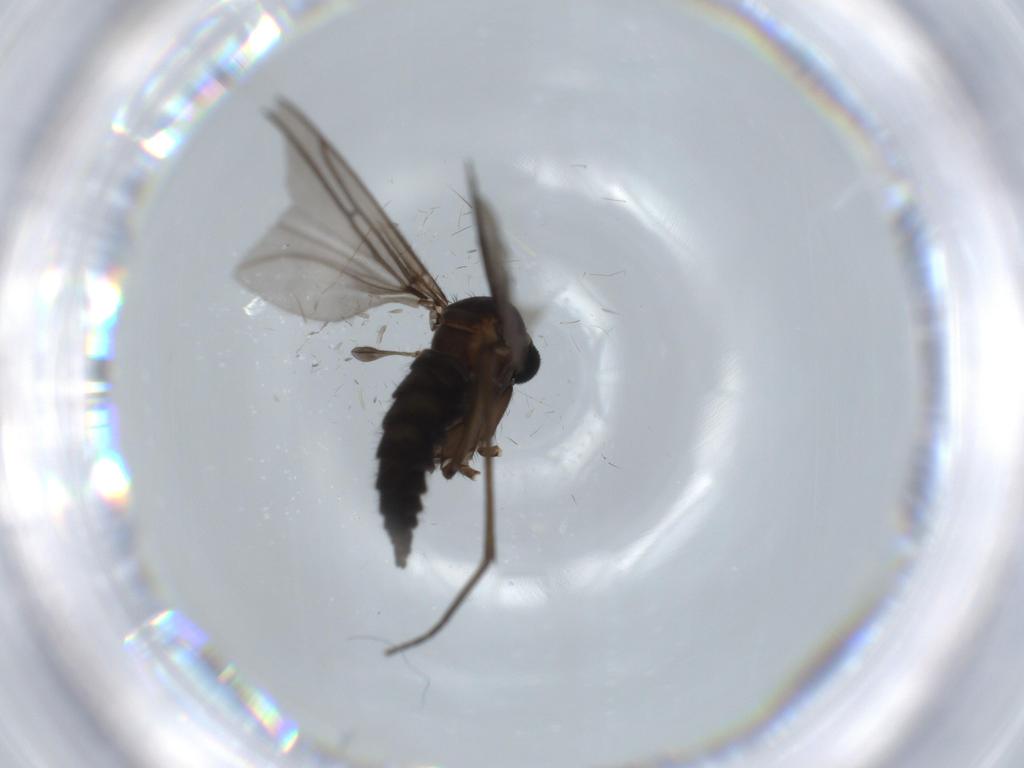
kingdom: Animalia
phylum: Arthropoda
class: Insecta
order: Diptera
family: Sciaridae
